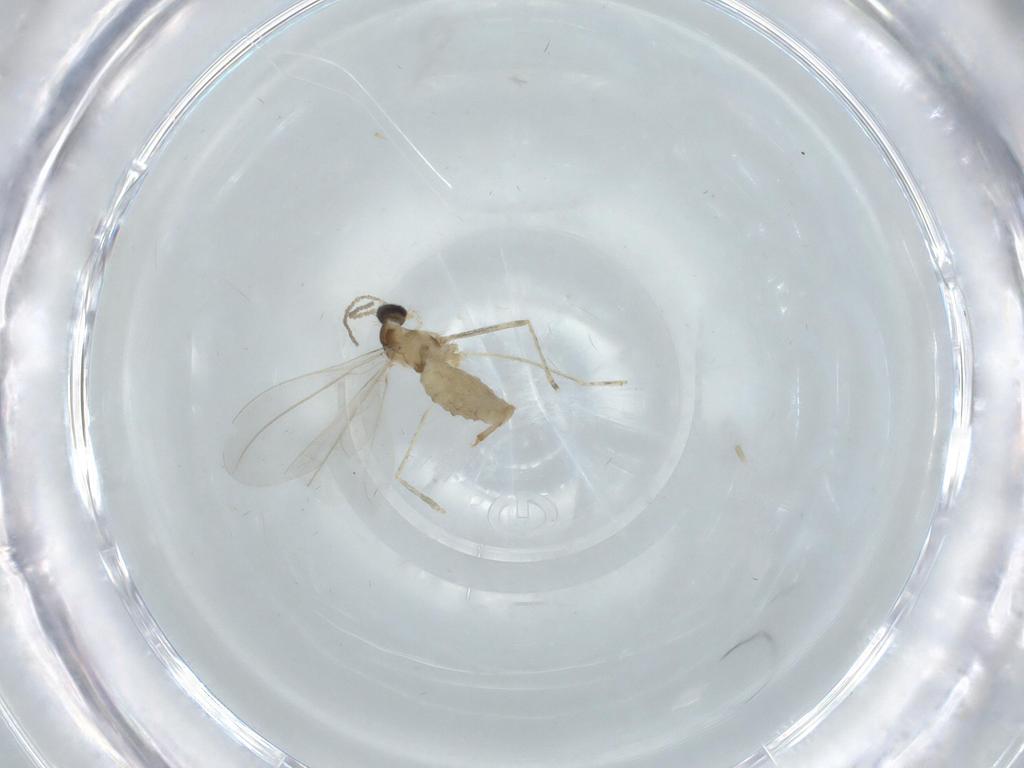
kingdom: Animalia
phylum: Arthropoda
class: Insecta
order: Diptera
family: Cecidomyiidae
